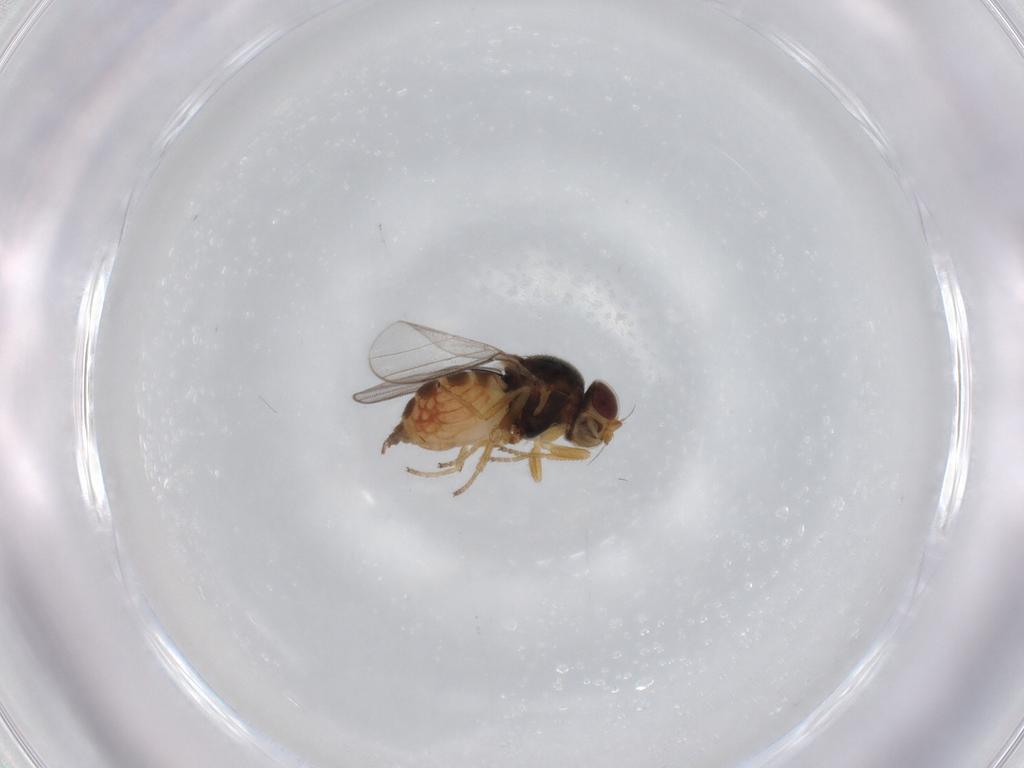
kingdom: Animalia
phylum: Arthropoda
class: Insecta
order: Diptera
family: Chloropidae
